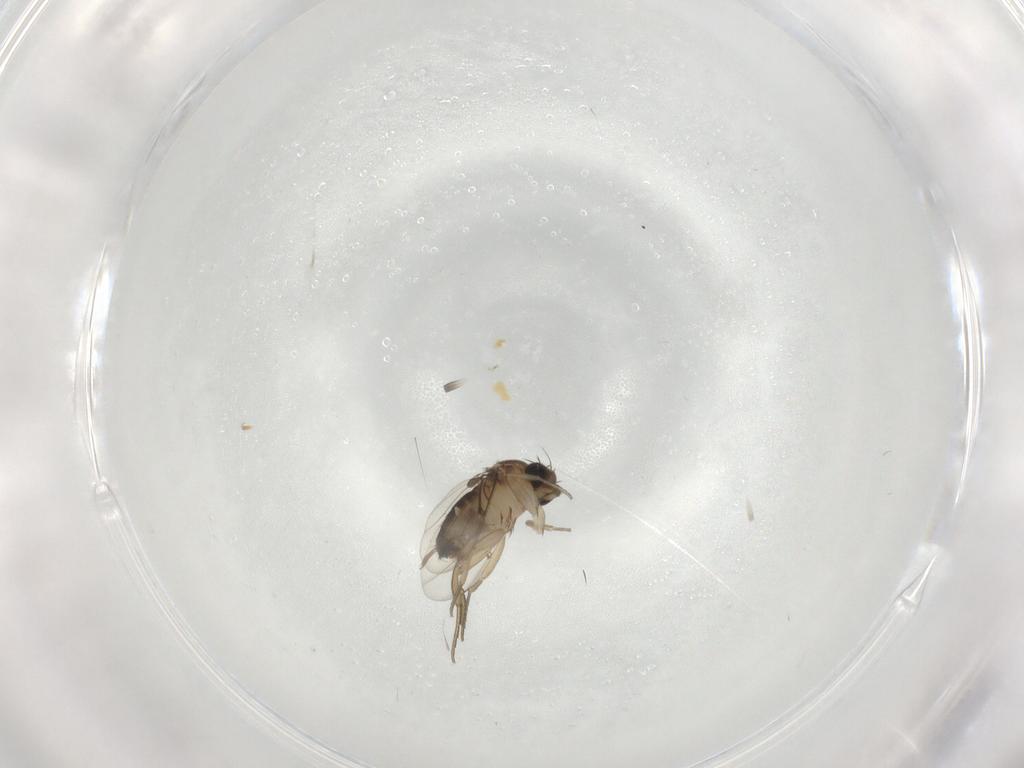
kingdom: Animalia
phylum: Arthropoda
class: Insecta
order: Diptera
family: Cecidomyiidae
